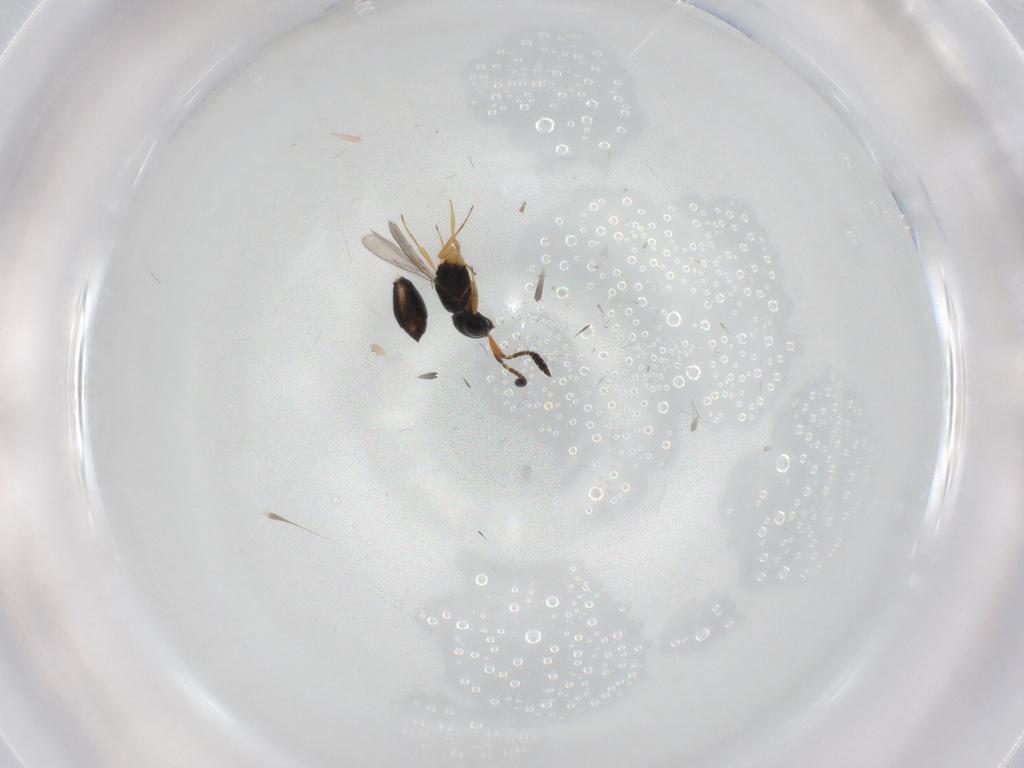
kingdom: Animalia
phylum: Arthropoda
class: Insecta
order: Hymenoptera
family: Scelionidae
